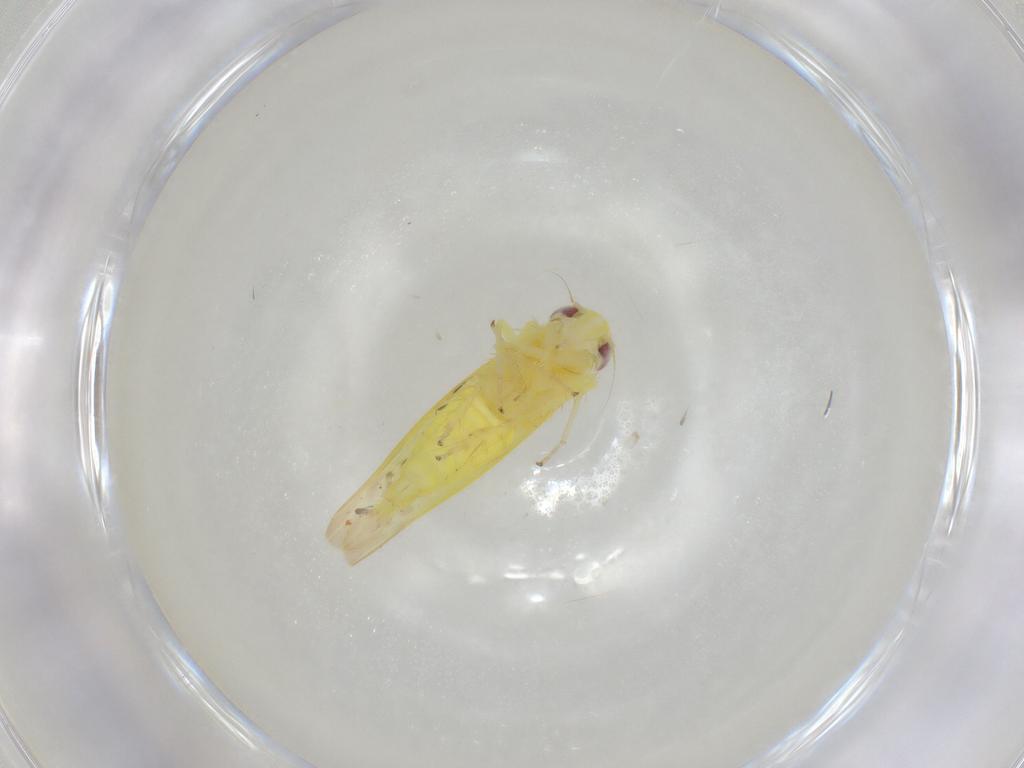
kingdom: Animalia
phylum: Arthropoda
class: Insecta
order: Hemiptera
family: Cicadellidae
